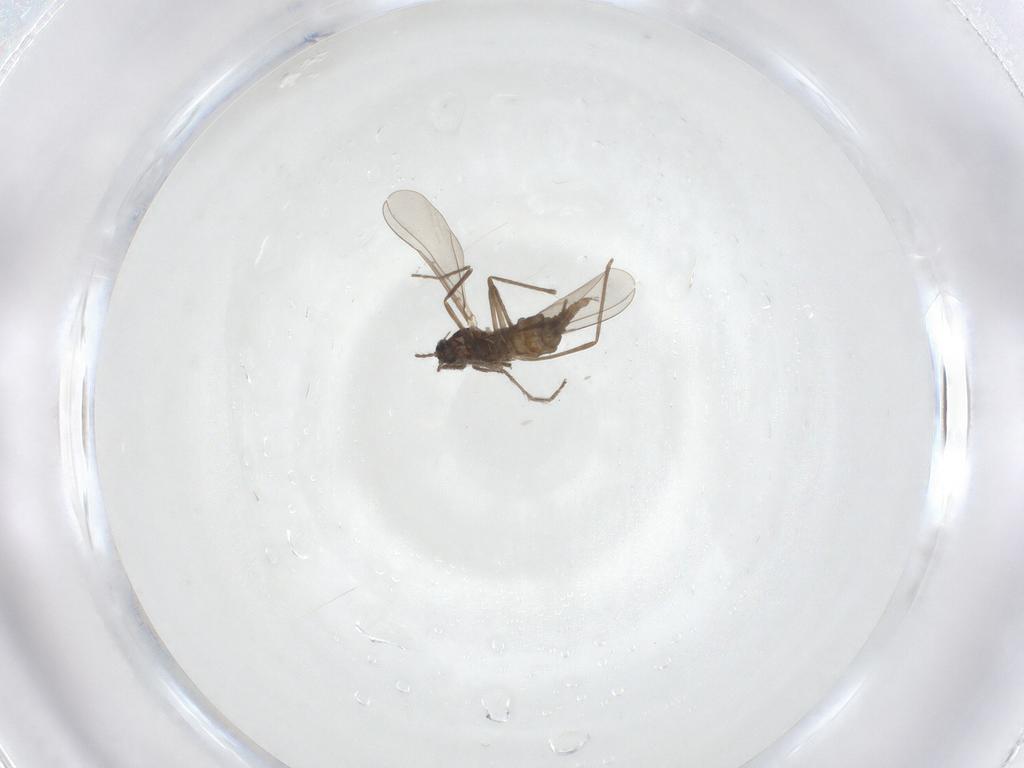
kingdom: Animalia
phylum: Arthropoda
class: Insecta
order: Diptera
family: Cecidomyiidae
